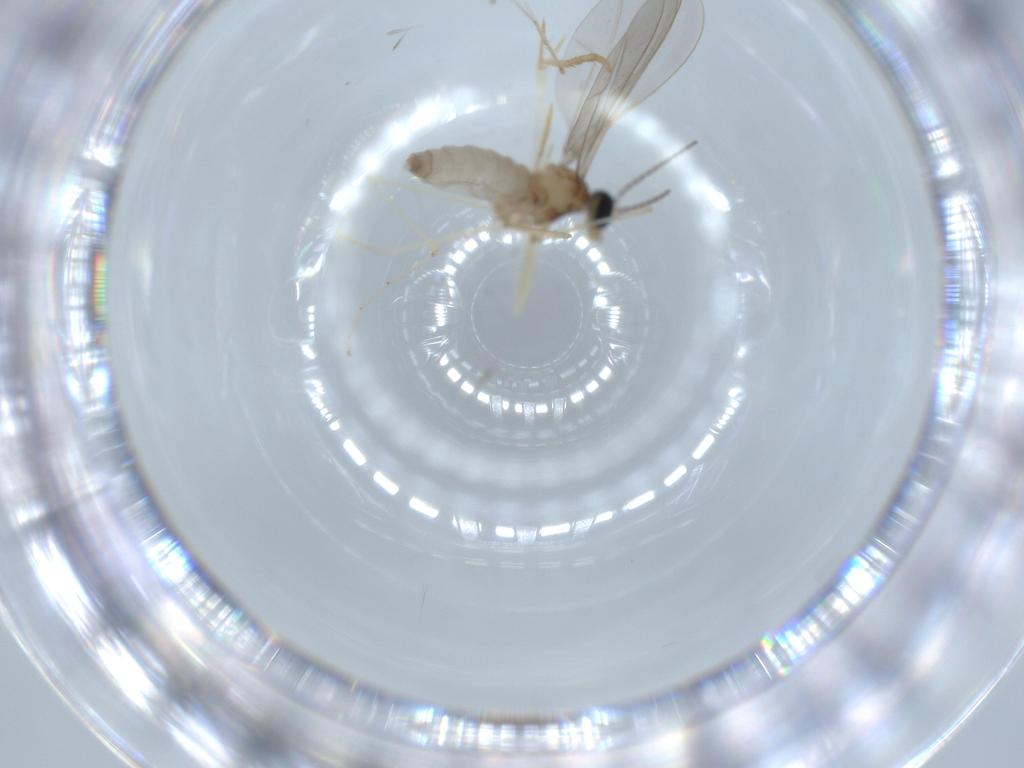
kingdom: Animalia
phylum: Arthropoda
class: Insecta
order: Diptera
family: Cecidomyiidae
